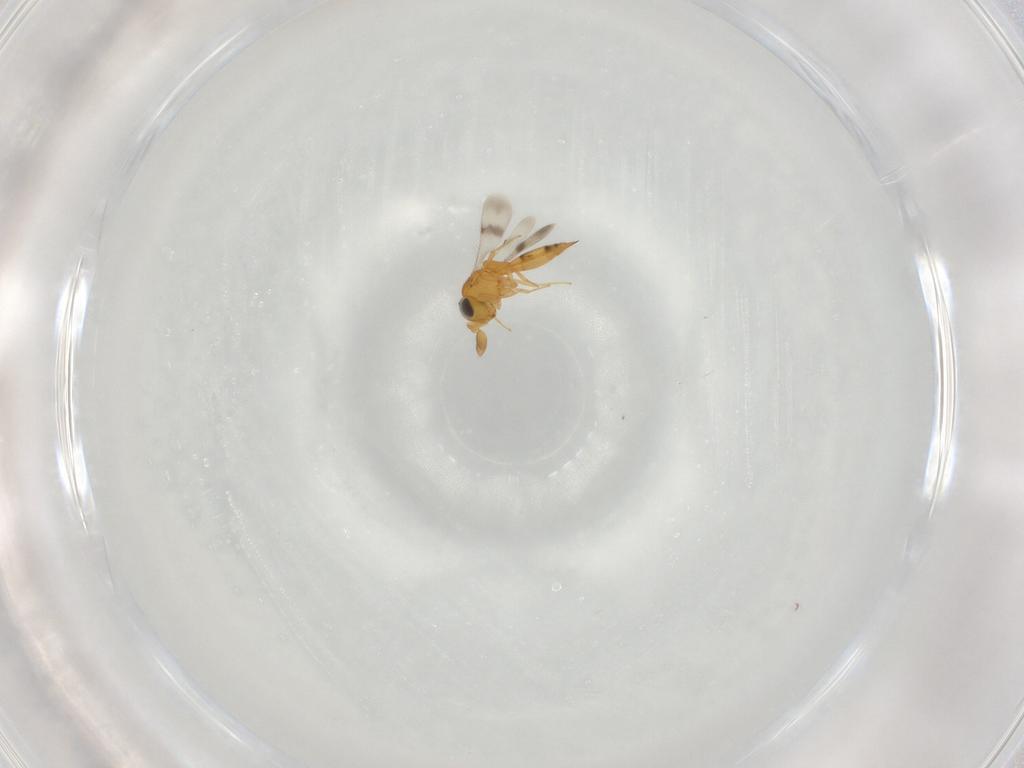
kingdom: Animalia
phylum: Arthropoda
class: Insecta
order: Hymenoptera
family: Scelionidae
